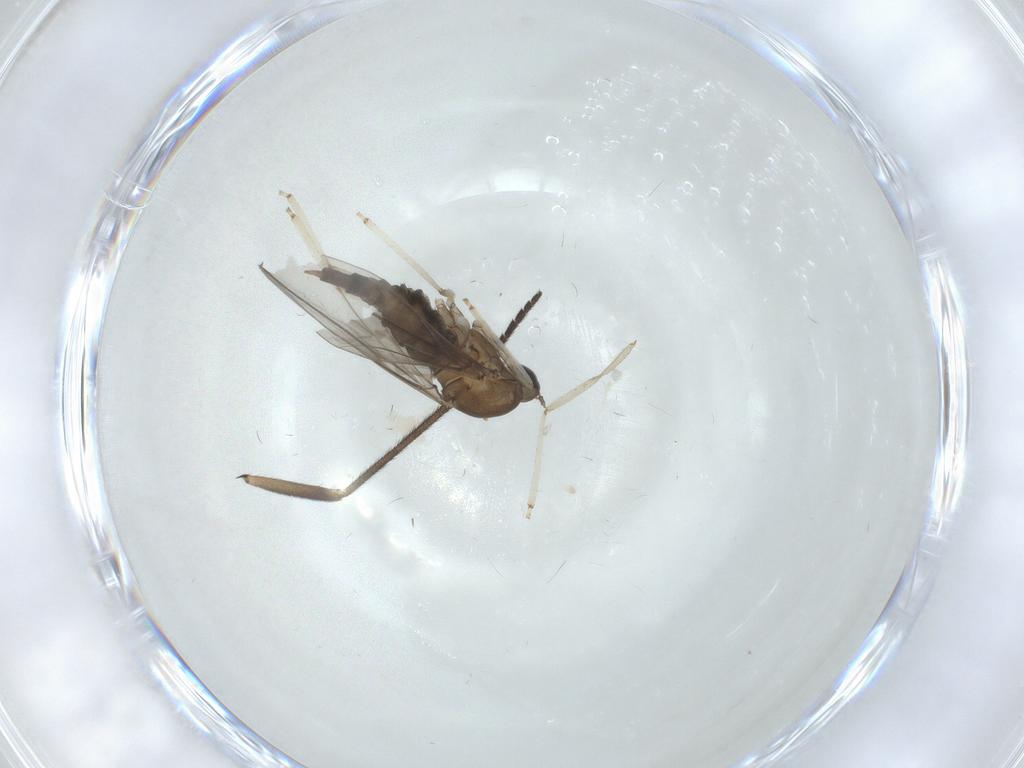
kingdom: Animalia
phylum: Arthropoda
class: Insecta
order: Diptera
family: Cecidomyiidae
